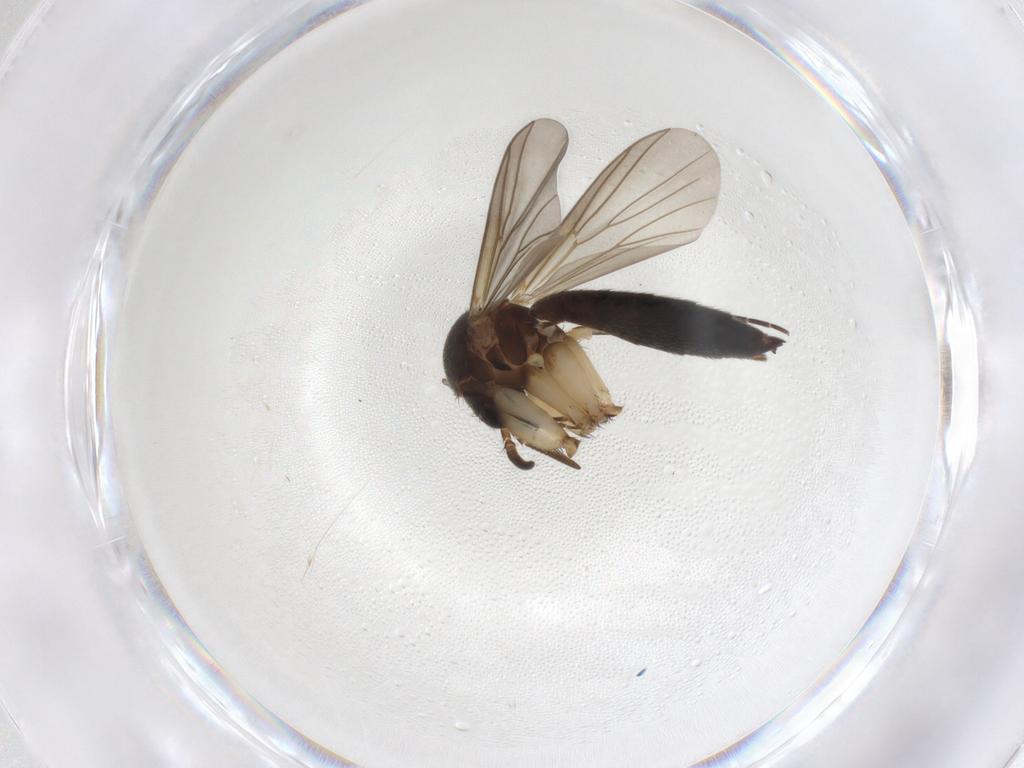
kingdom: Animalia
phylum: Arthropoda
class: Insecta
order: Diptera
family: Mycetophilidae
